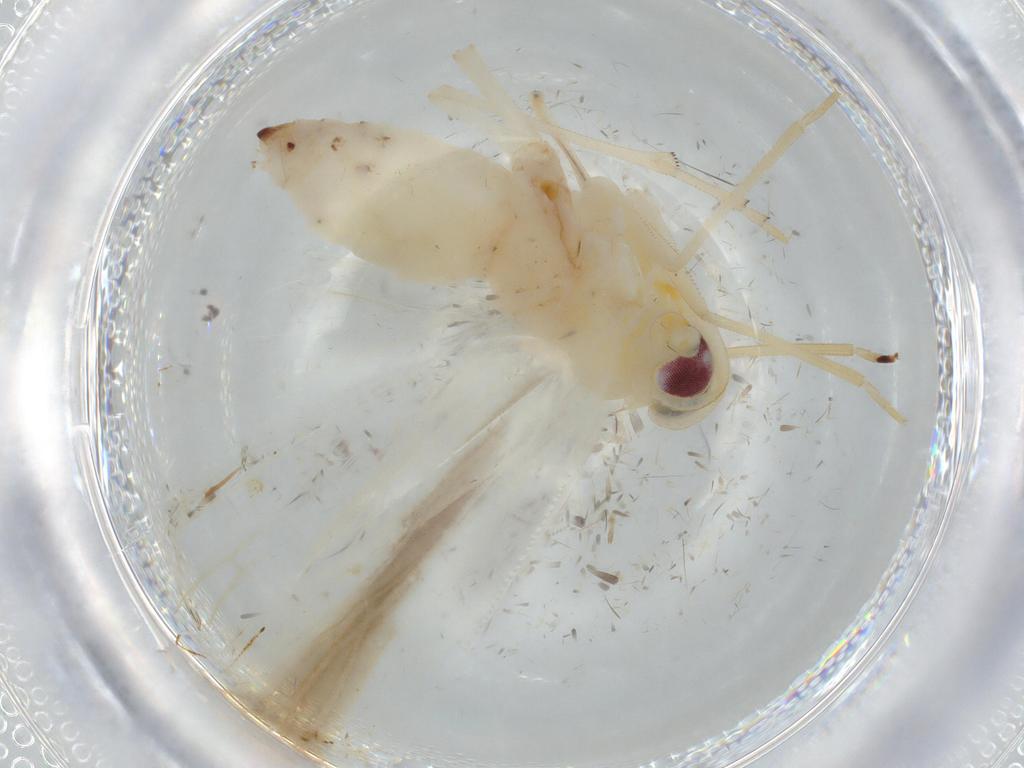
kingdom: Animalia
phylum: Arthropoda
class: Insecta
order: Hemiptera
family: Derbidae
